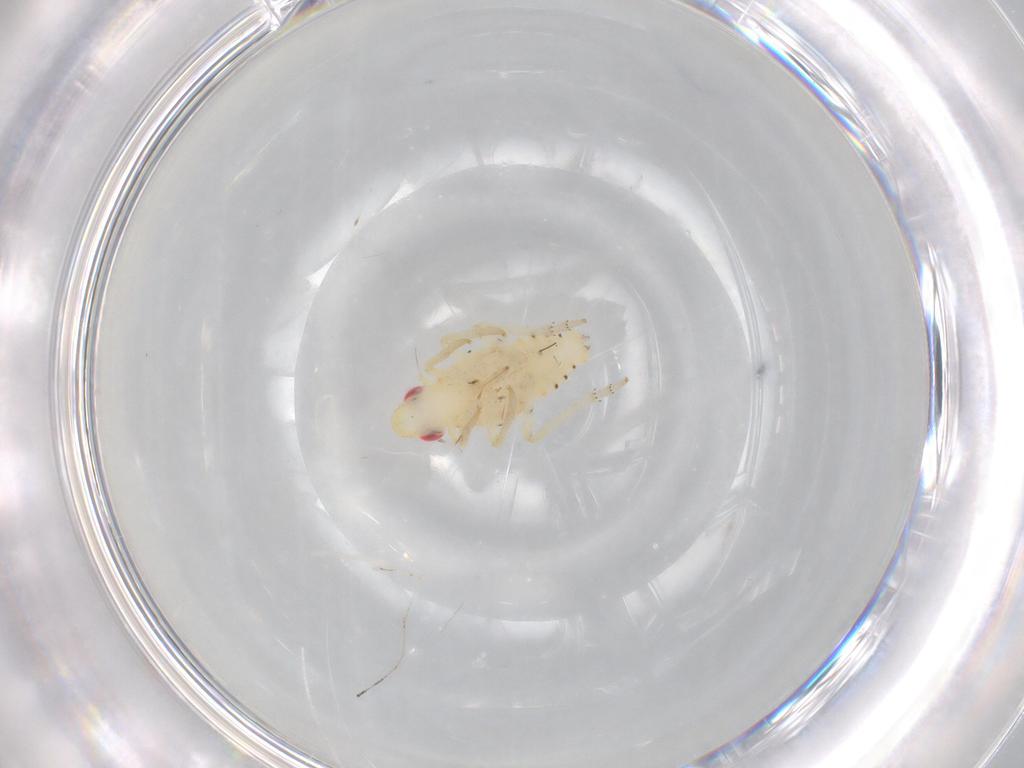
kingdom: Animalia
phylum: Arthropoda
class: Insecta
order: Hemiptera
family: Tropiduchidae
